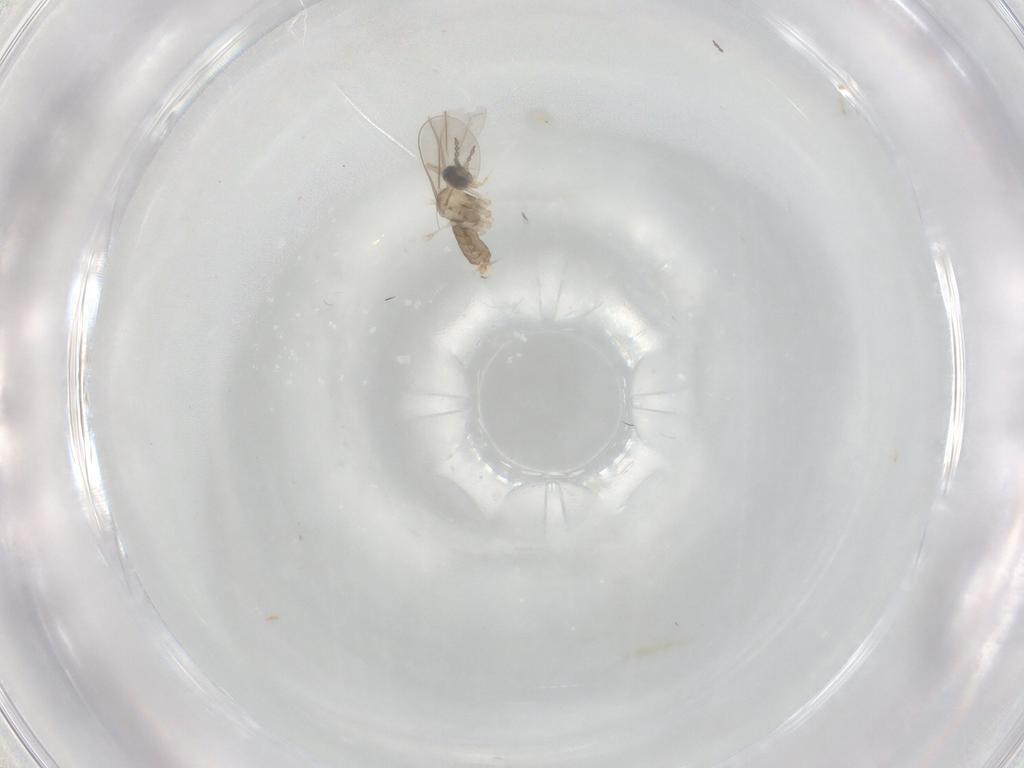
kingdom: Animalia
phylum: Arthropoda
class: Insecta
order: Diptera
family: Cecidomyiidae
